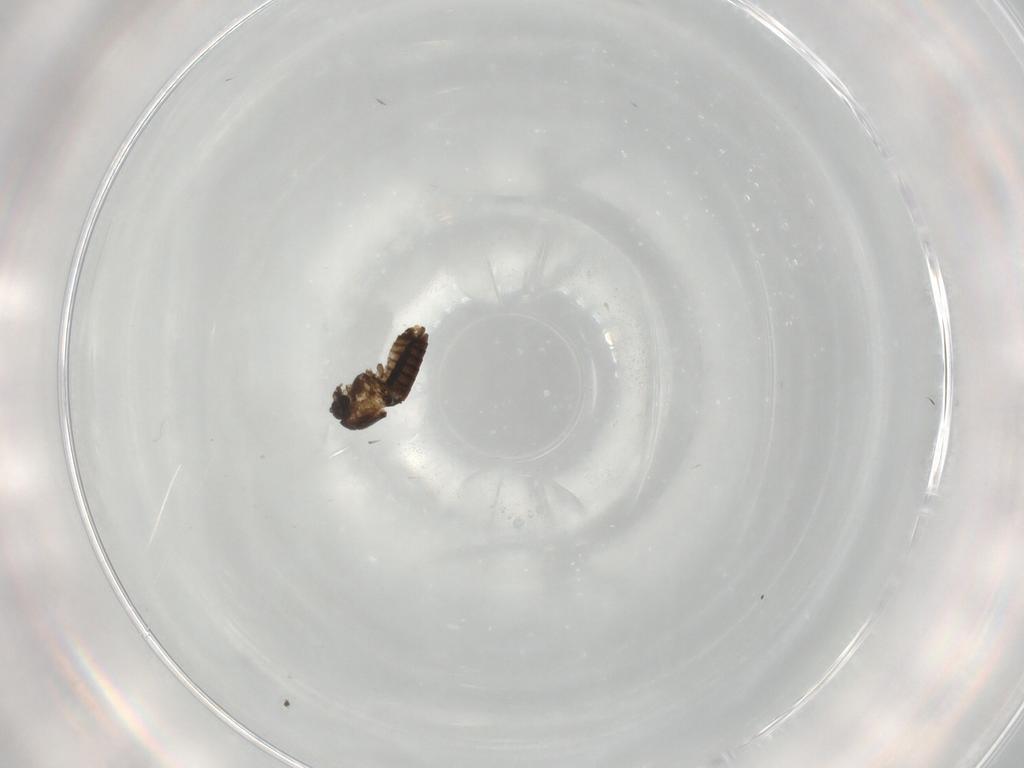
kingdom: Animalia
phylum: Arthropoda
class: Insecta
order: Diptera
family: Chironomidae
